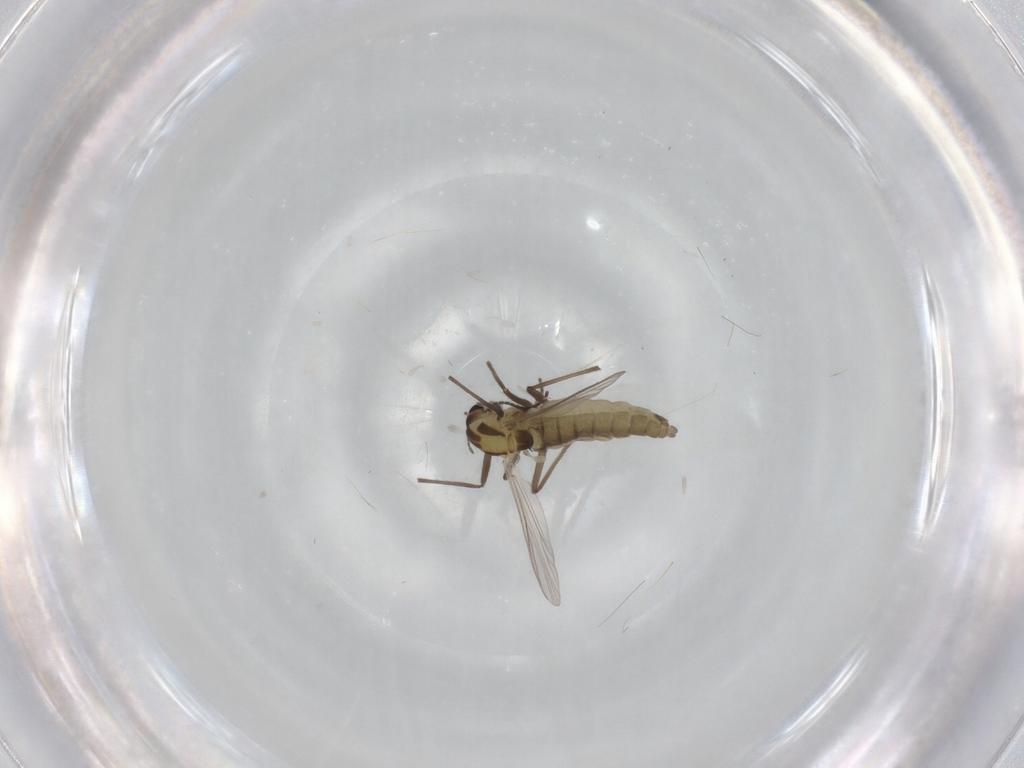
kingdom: Animalia
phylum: Arthropoda
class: Insecta
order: Diptera
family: Chironomidae
